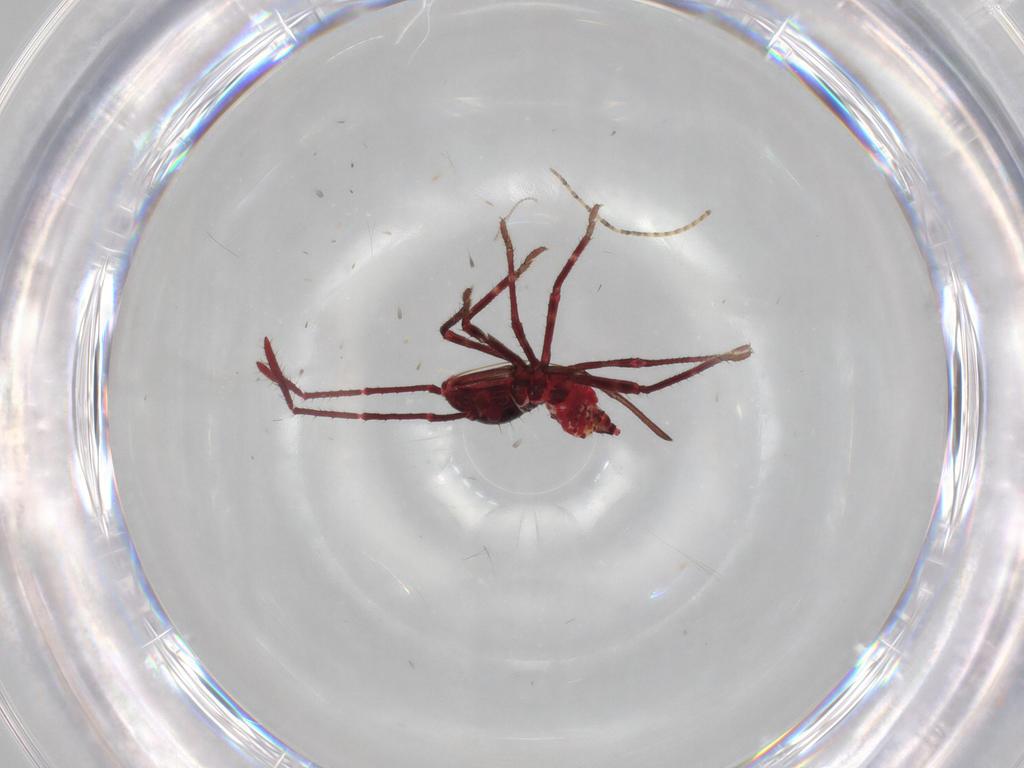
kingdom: Animalia
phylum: Arthropoda
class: Insecta
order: Hemiptera
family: Coreidae
